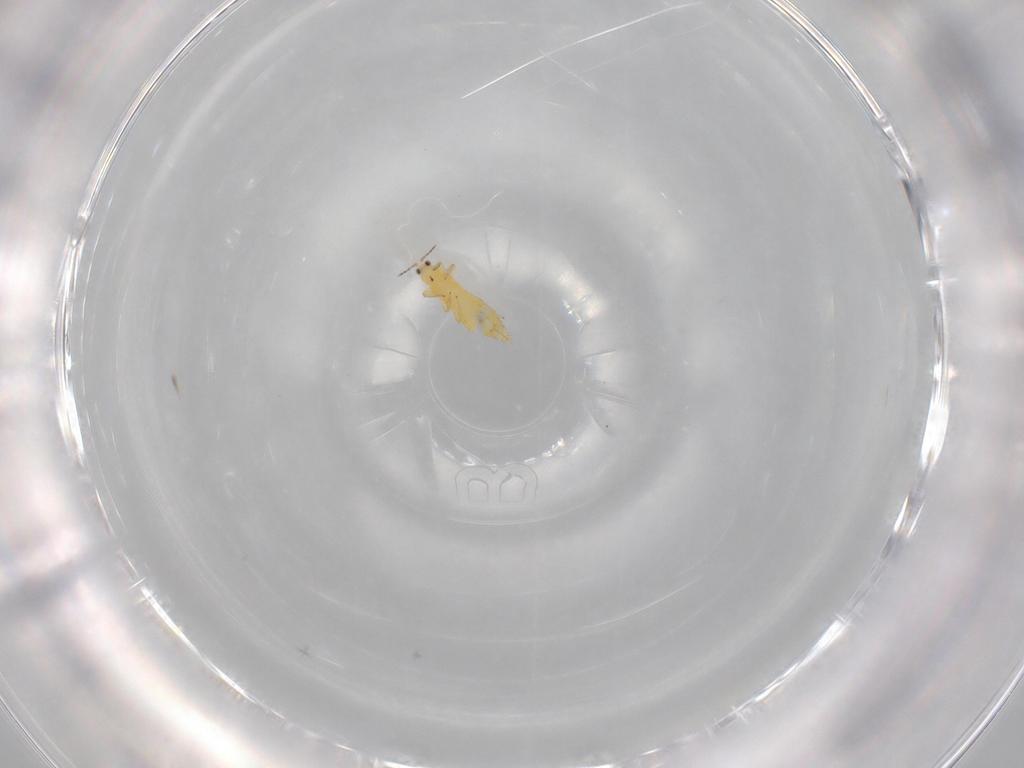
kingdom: Animalia
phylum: Arthropoda
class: Insecta
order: Thysanoptera
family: Thripidae
